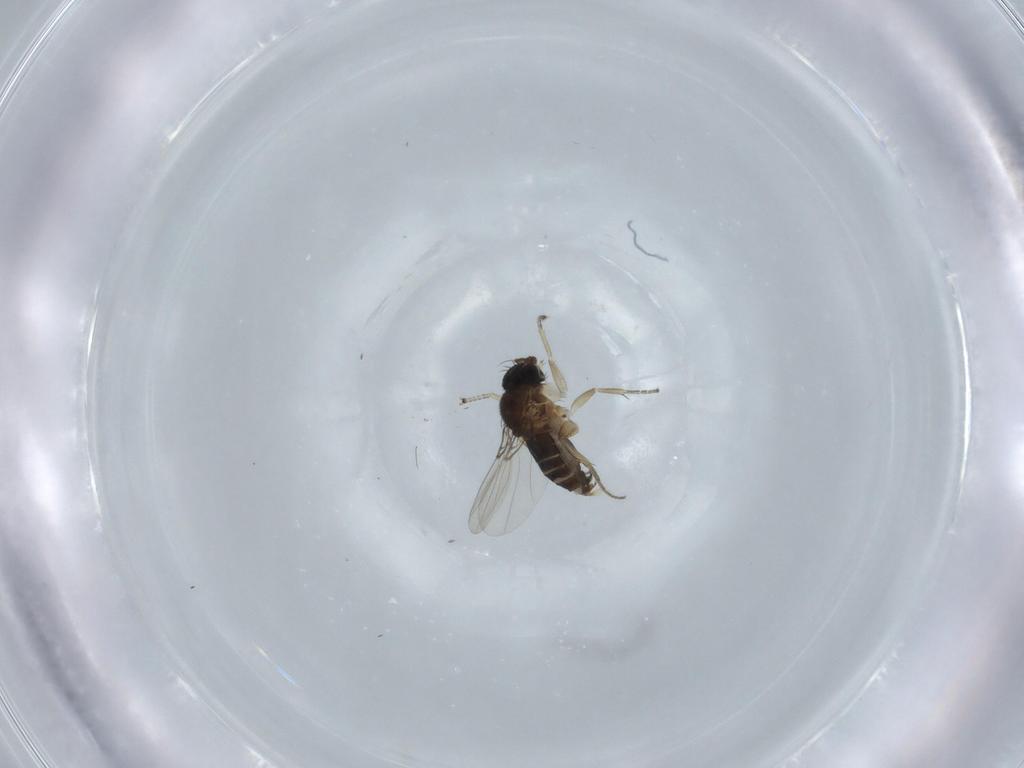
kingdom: Animalia
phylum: Arthropoda
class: Insecta
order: Diptera
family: Phoridae
